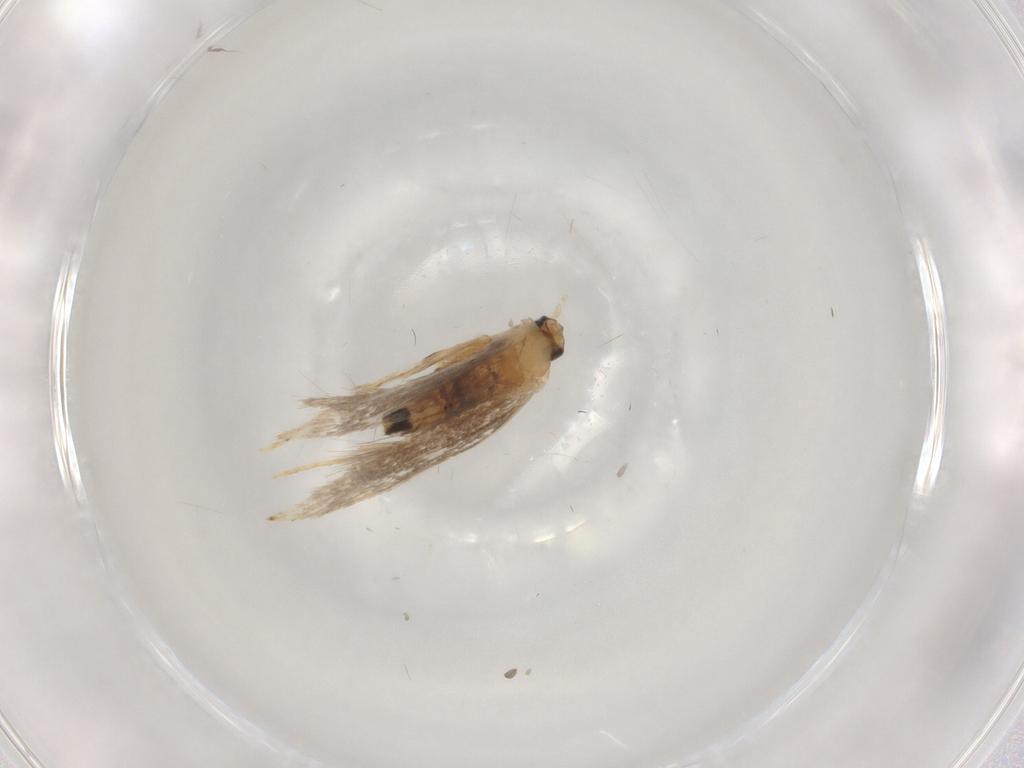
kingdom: Animalia
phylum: Arthropoda
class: Insecta
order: Lepidoptera
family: Dryadaulidae
